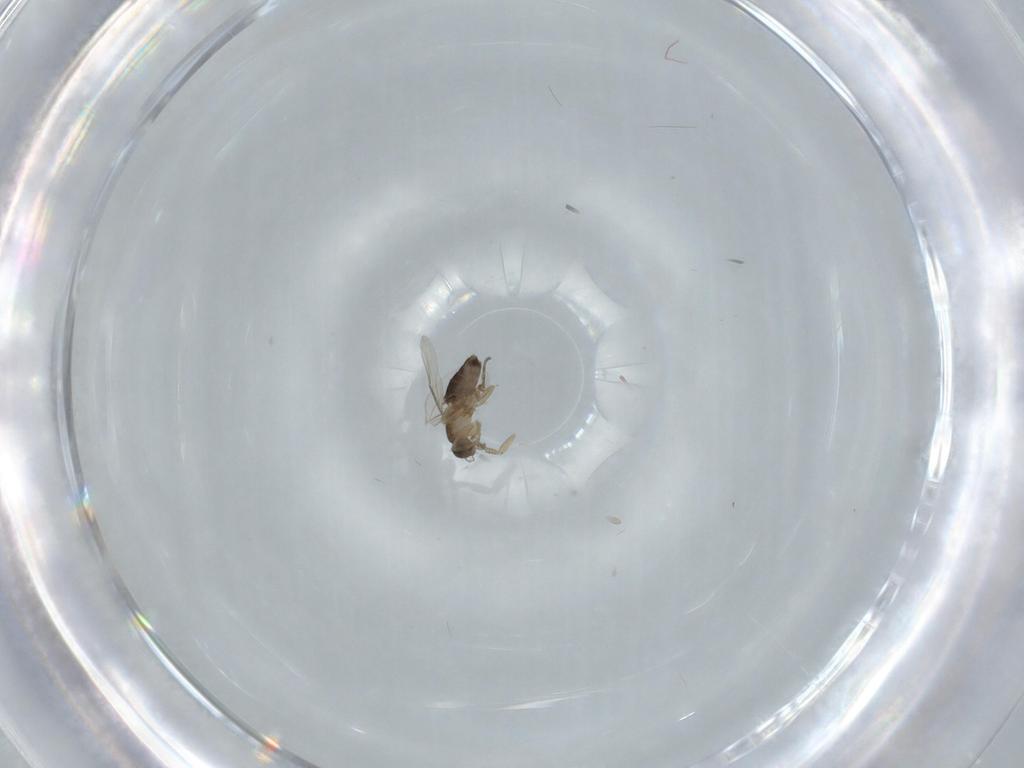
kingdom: Animalia
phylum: Arthropoda
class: Insecta
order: Diptera
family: Phoridae
